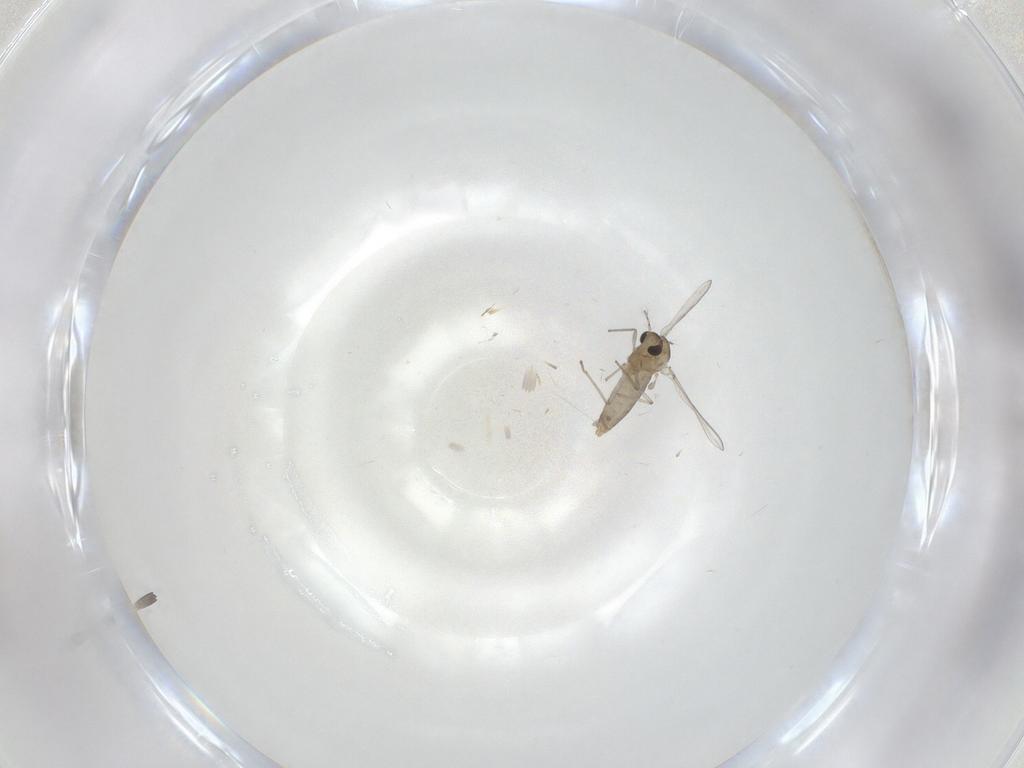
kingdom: Animalia
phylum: Arthropoda
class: Insecta
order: Diptera
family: Chironomidae
